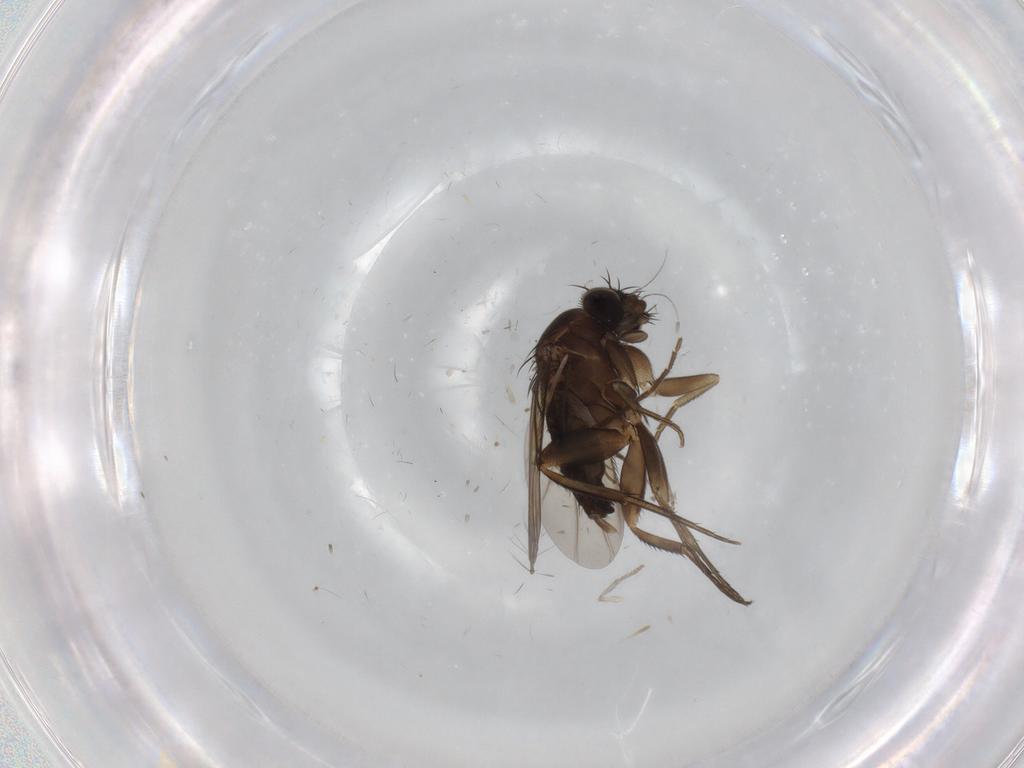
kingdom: Animalia
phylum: Arthropoda
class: Insecta
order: Diptera
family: Phoridae
